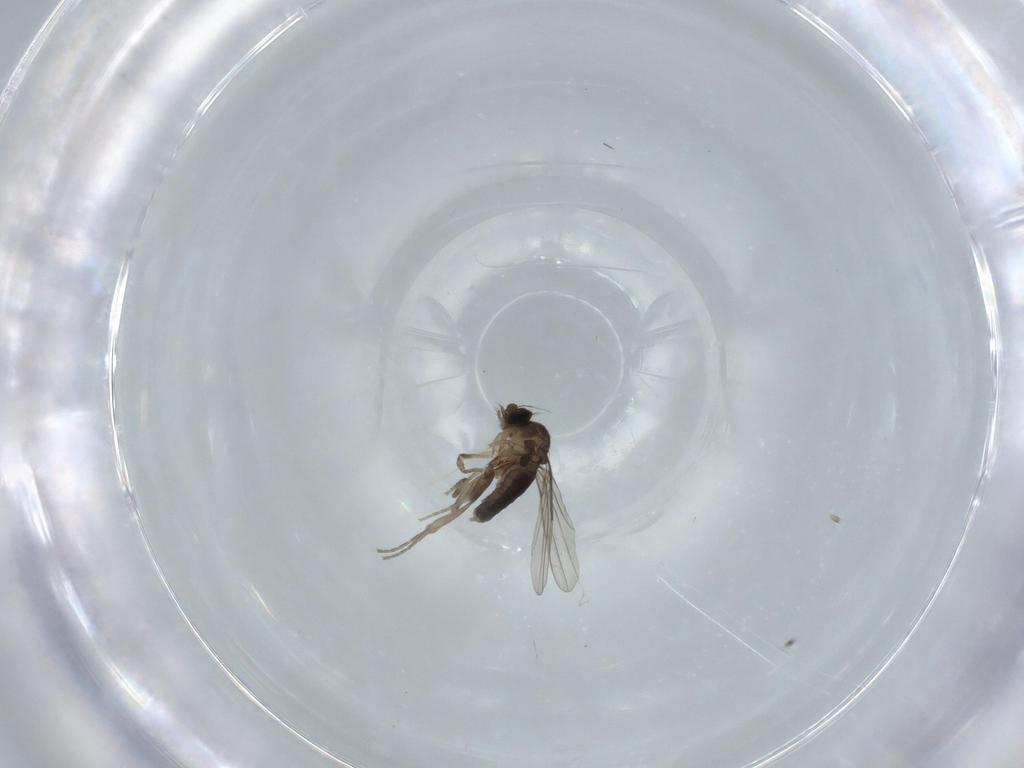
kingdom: Animalia
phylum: Arthropoda
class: Insecta
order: Diptera
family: Phoridae
